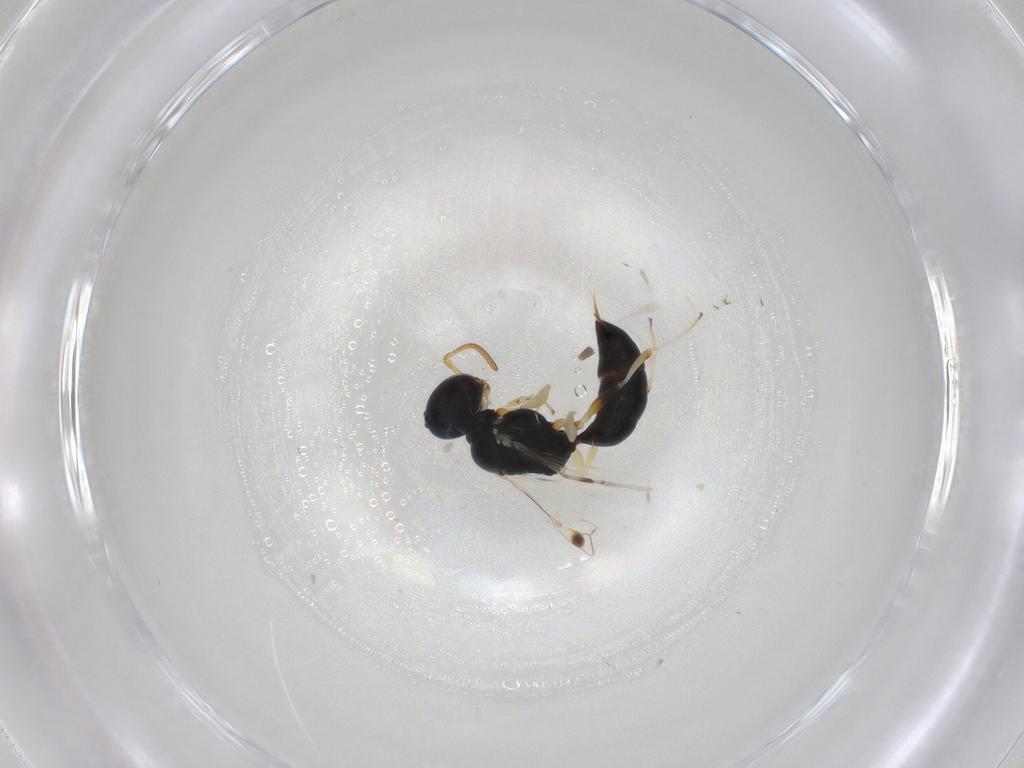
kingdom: Animalia
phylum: Arthropoda
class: Insecta
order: Hymenoptera
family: Pemphredonidae
